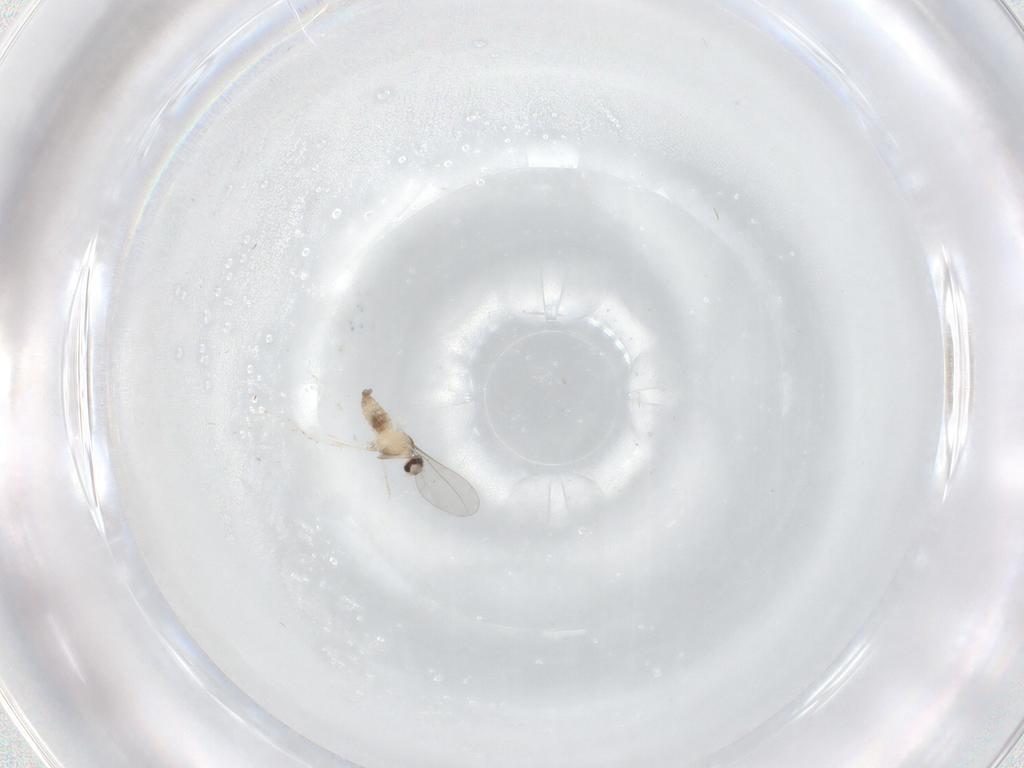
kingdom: Animalia
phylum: Arthropoda
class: Insecta
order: Diptera
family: Cecidomyiidae
